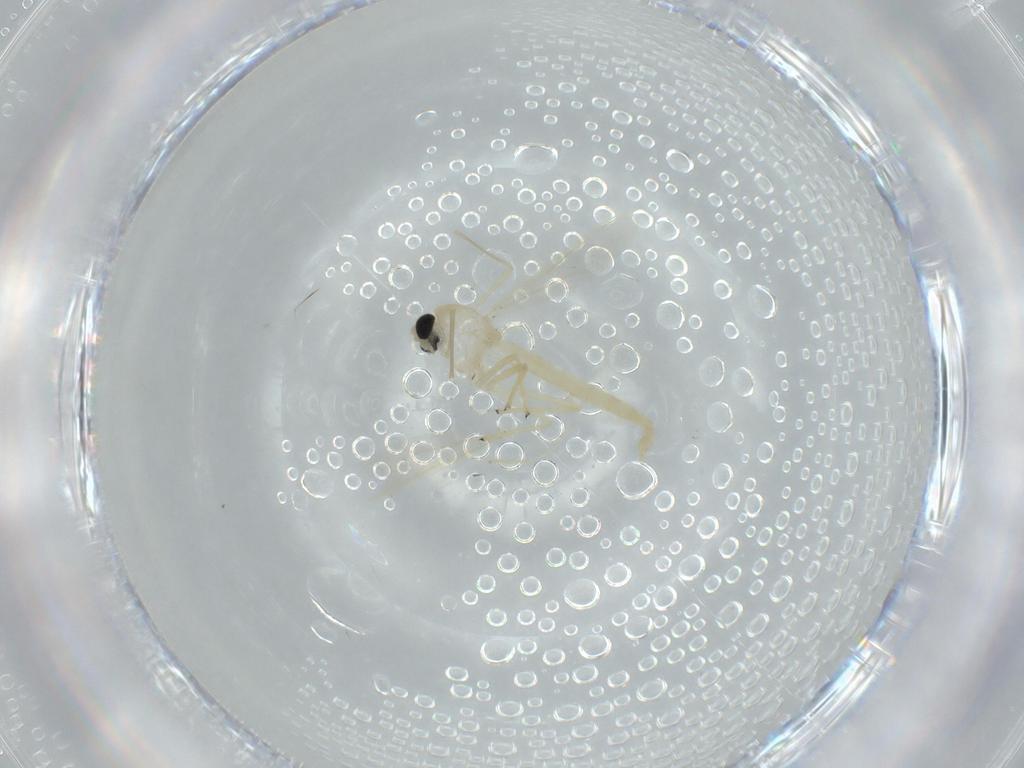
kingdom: Animalia
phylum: Arthropoda
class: Insecta
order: Diptera
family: Chironomidae
